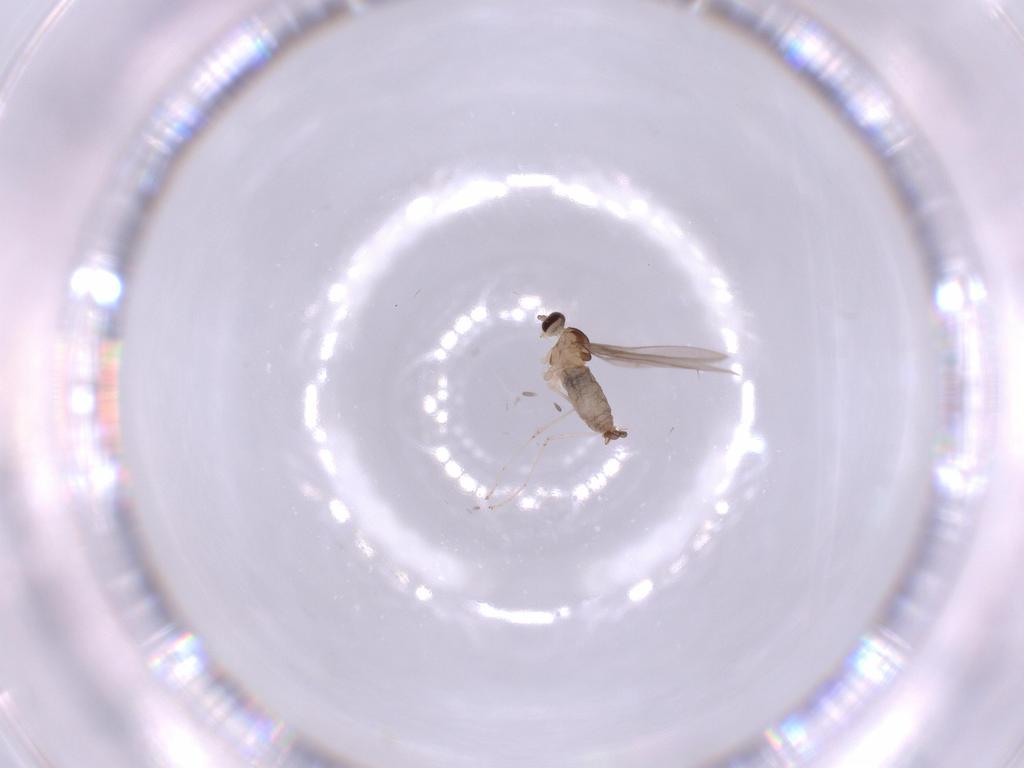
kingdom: Animalia
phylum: Arthropoda
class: Insecta
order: Diptera
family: Cecidomyiidae
